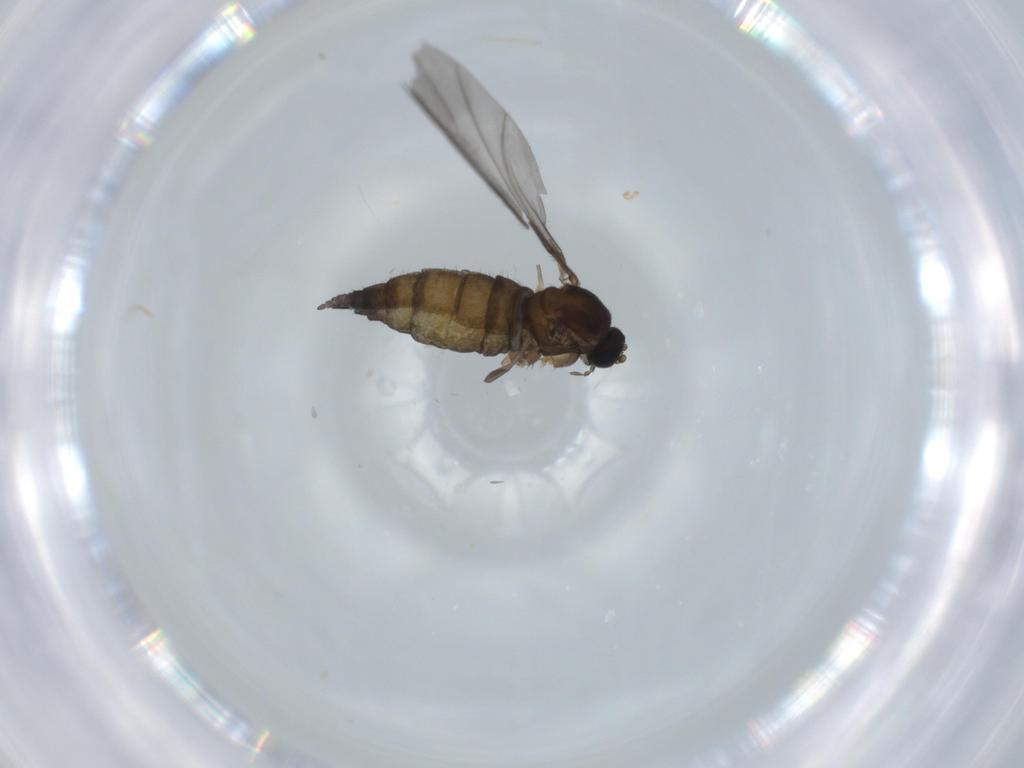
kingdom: Animalia
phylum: Arthropoda
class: Insecta
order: Diptera
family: Sciaridae
